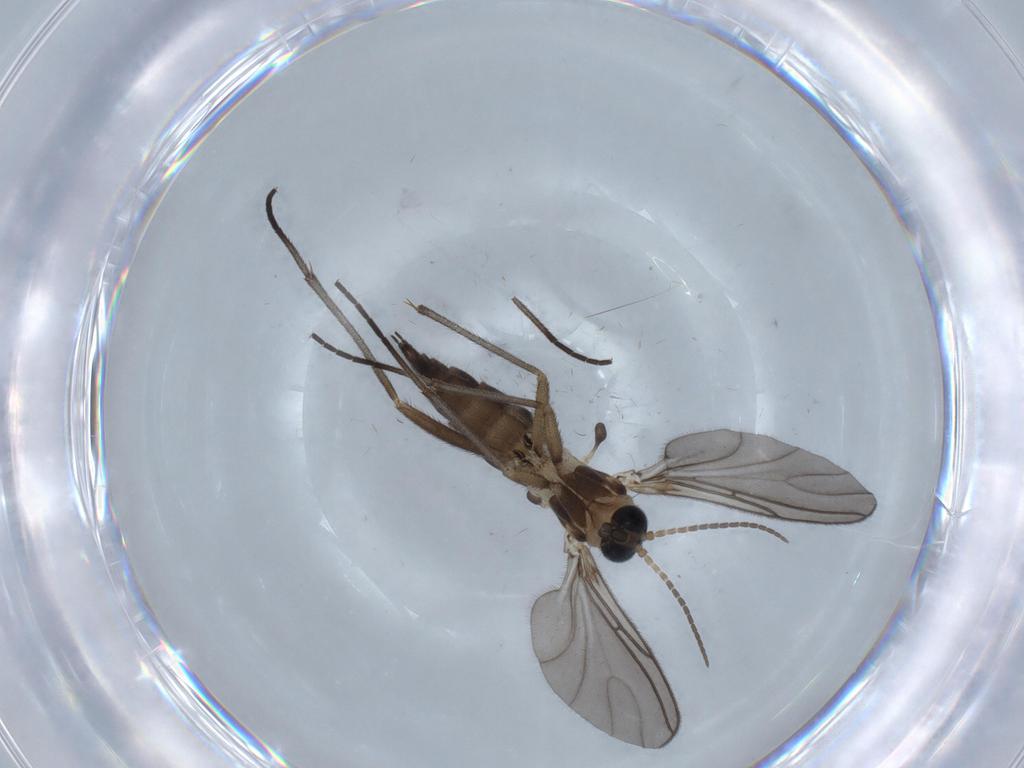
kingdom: Animalia
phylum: Arthropoda
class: Insecta
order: Diptera
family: Sciaridae
